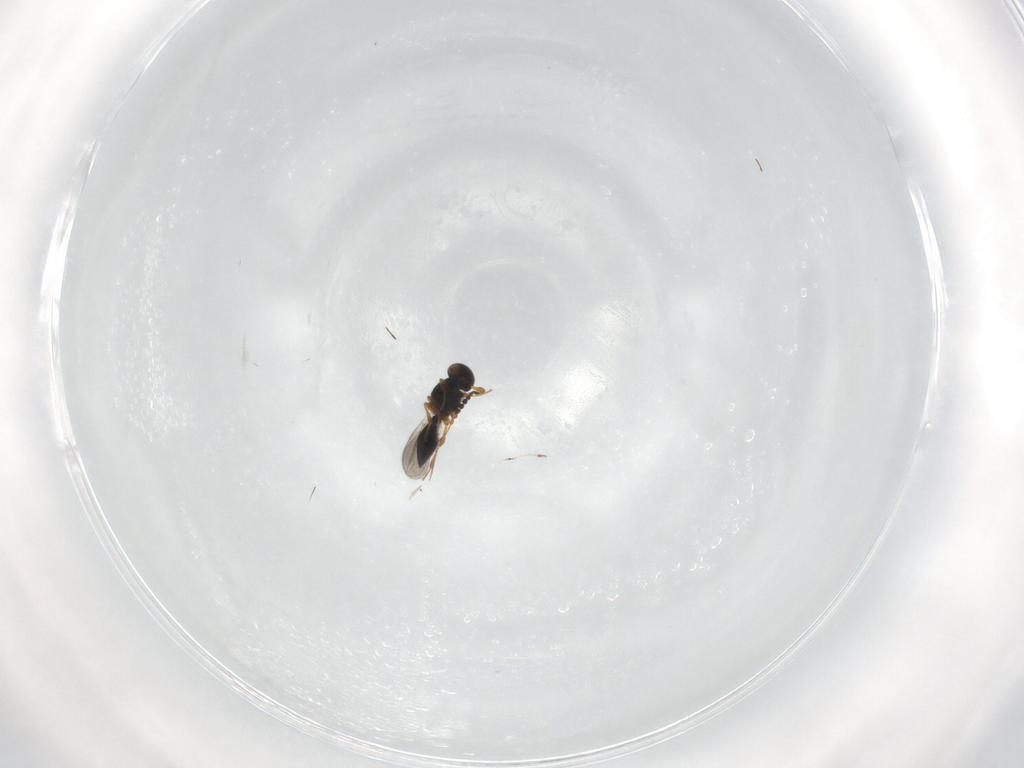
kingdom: Animalia
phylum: Arthropoda
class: Insecta
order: Hymenoptera
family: Platygastridae
